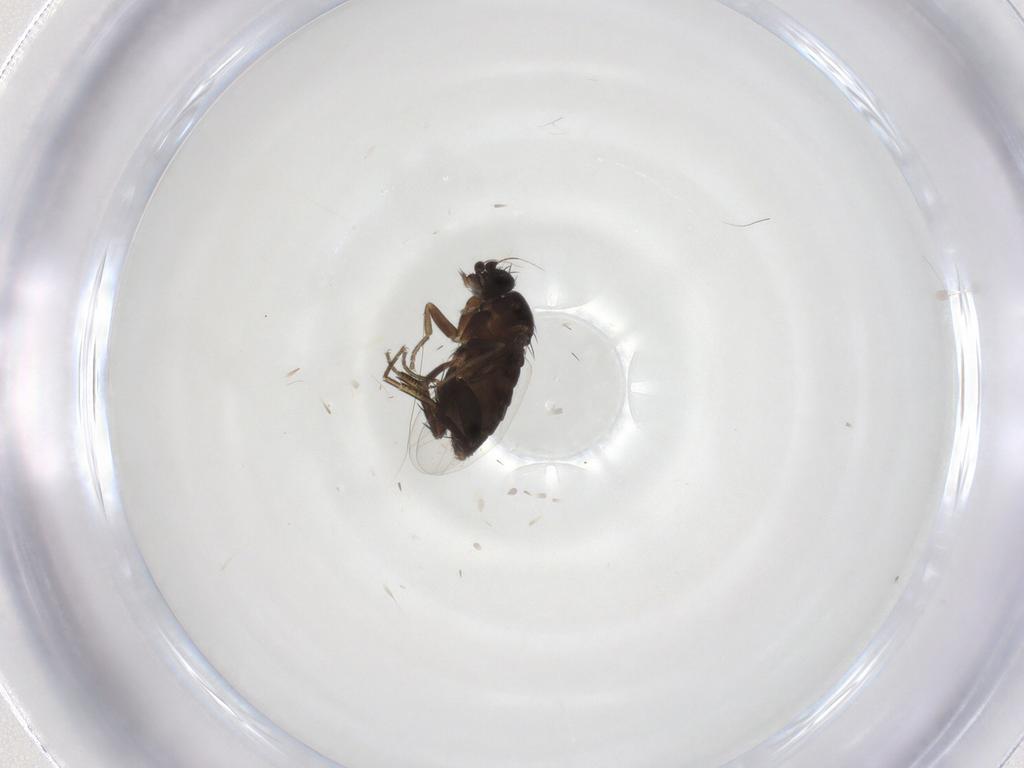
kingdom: Animalia
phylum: Arthropoda
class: Insecta
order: Diptera
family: Phoridae
